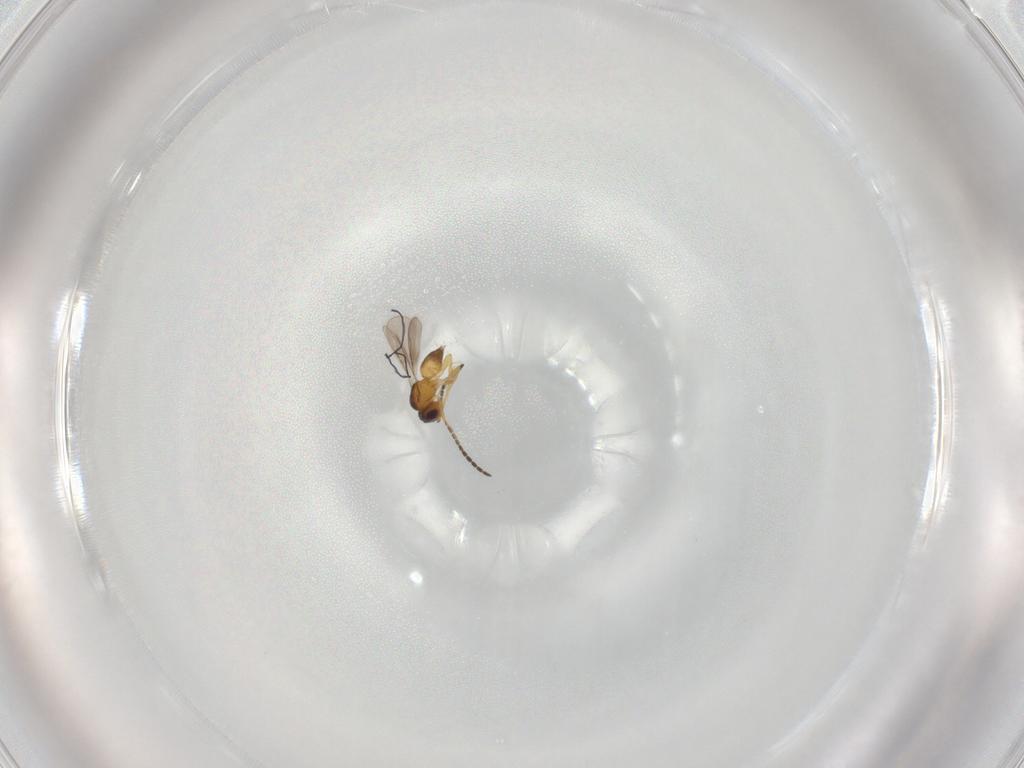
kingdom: Animalia
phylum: Arthropoda
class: Insecta
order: Hymenoptera
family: Ceraphronidae
